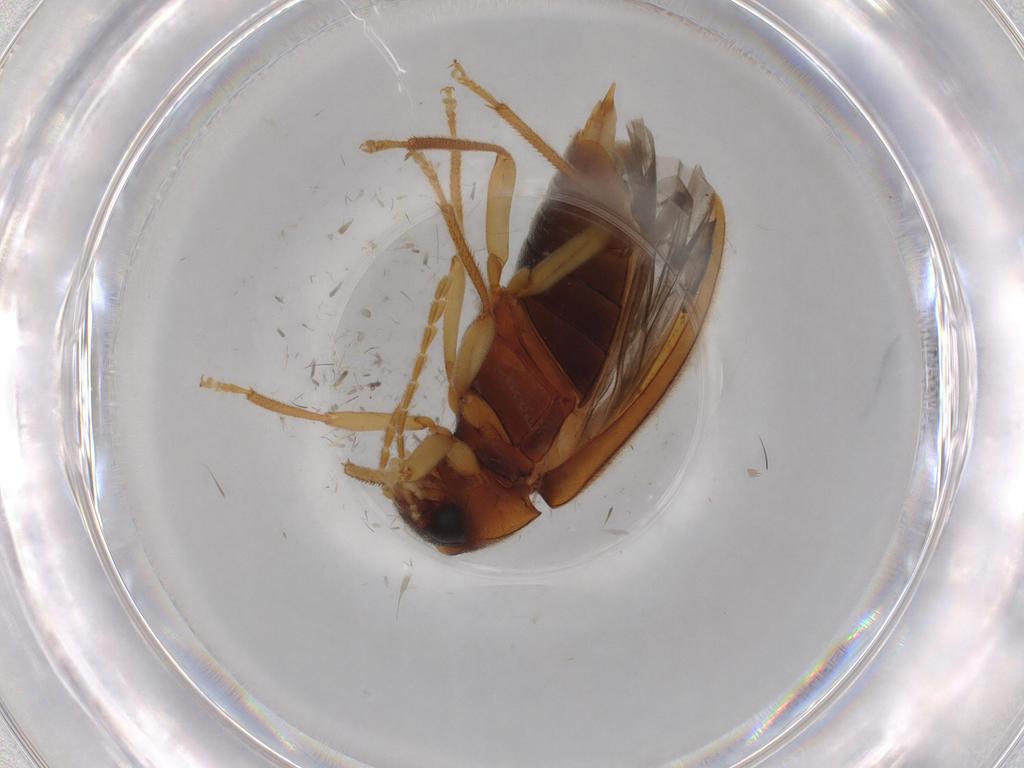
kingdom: Animalia
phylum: Arthropoda
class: Insecta
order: Coleoptera
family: Ptilodactylidae
